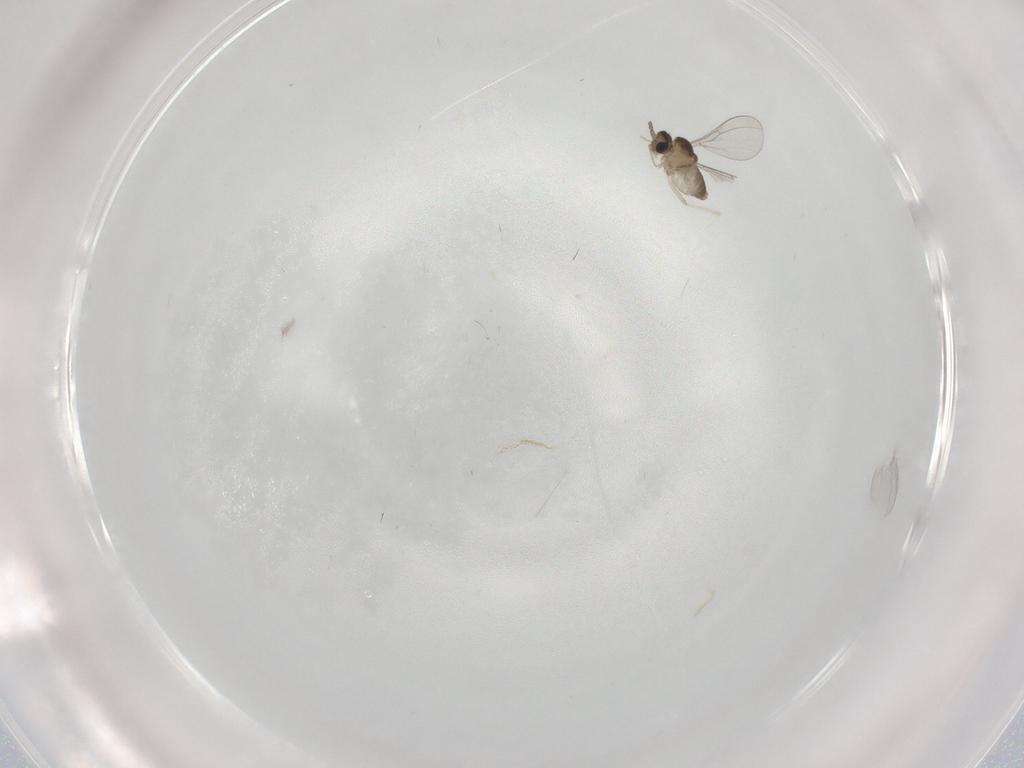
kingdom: Animalia
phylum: Arthropoda
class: Insecta
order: Diptera
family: Cecidomyiidae
